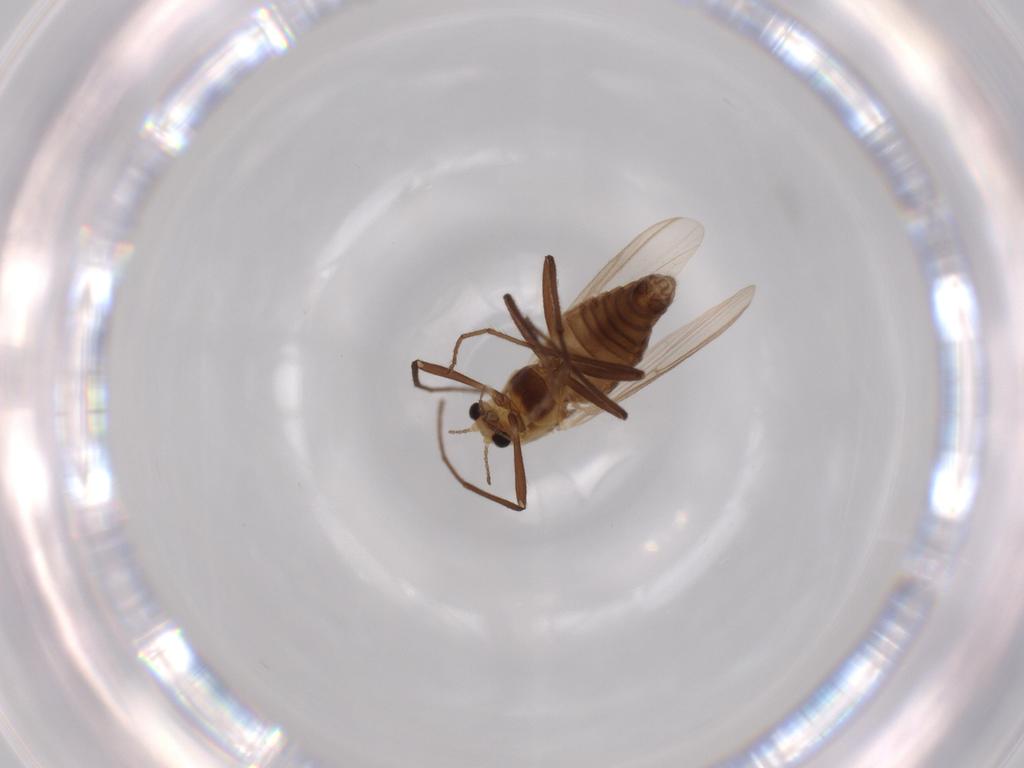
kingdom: Animalia
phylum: Arthropoda
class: Insecta
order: Diptera
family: Chironomidae
